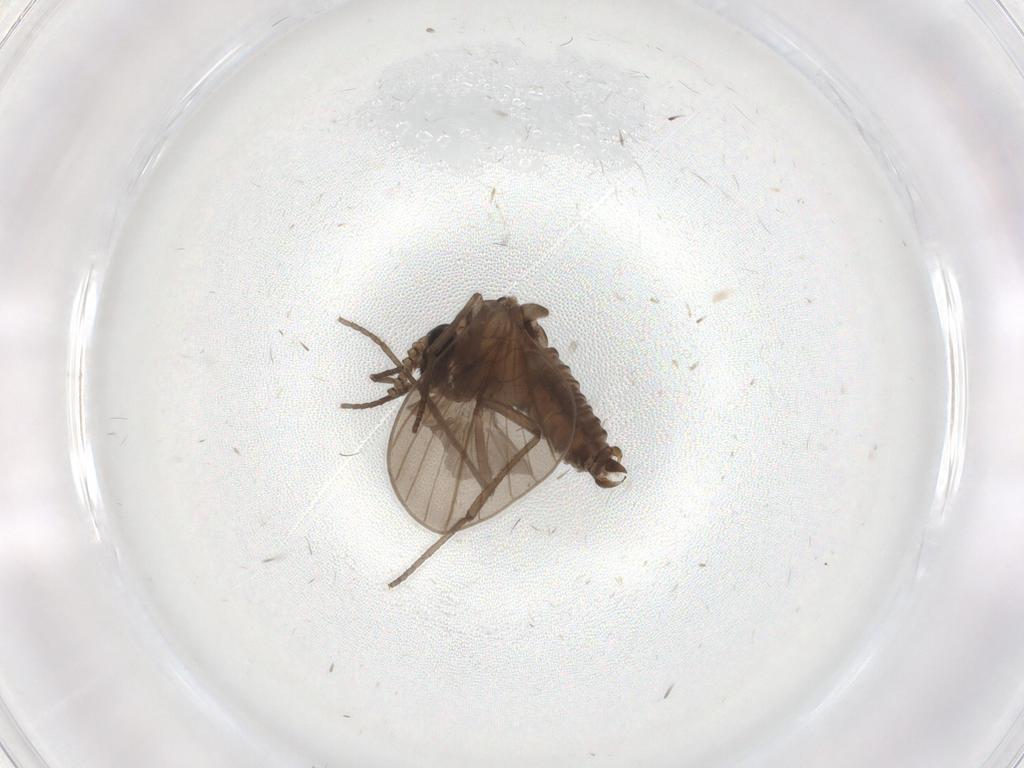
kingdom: Animalia
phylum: Arthropoda
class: Insecta
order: Diptera
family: Psychodidae
